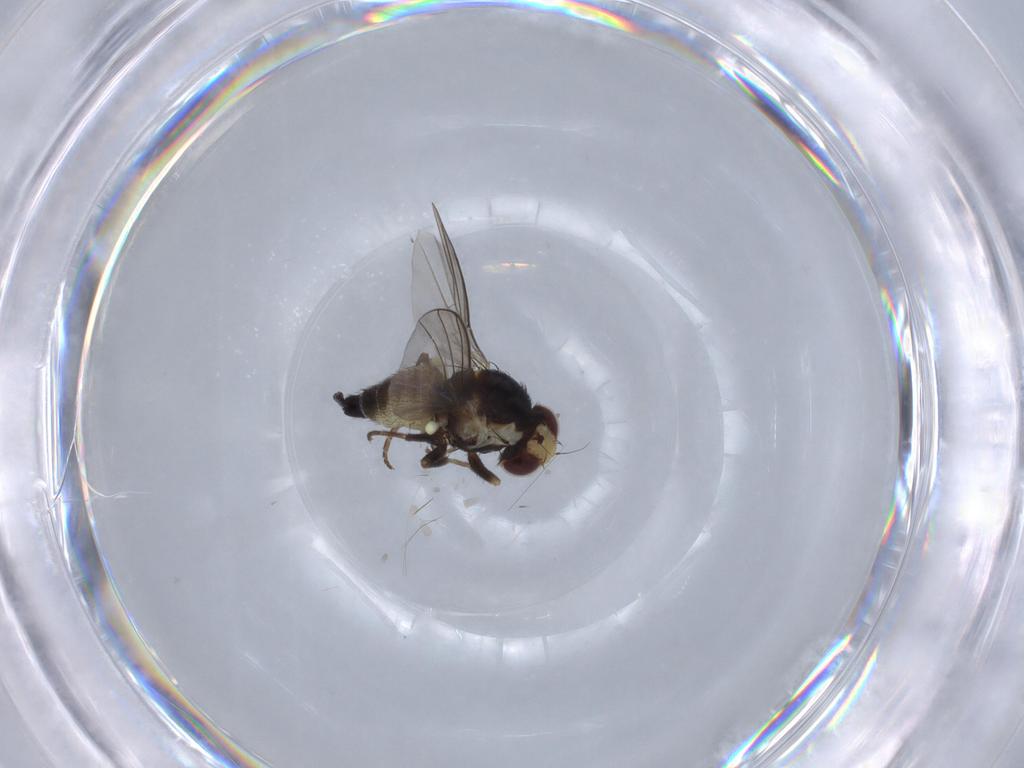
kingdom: Animalia
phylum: Arthropoda
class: Insecta
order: Diptera
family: Agromyzidae
